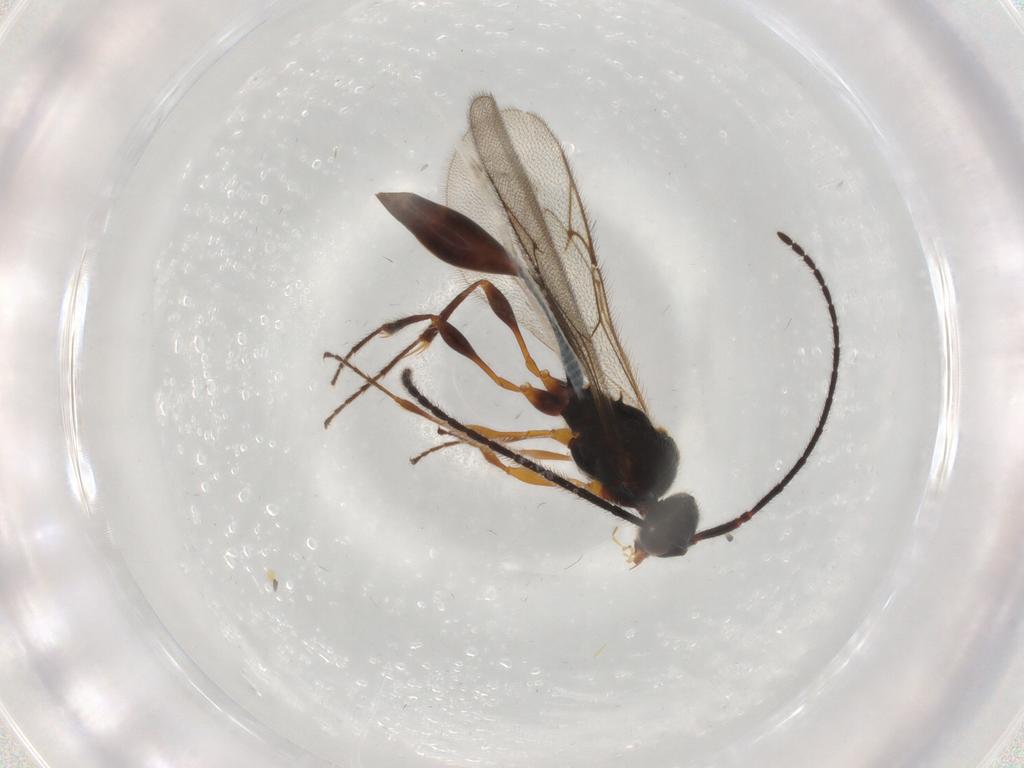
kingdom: Animalia
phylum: Arthropoda
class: Insecta
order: Hymenoptera
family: Diapriidae
